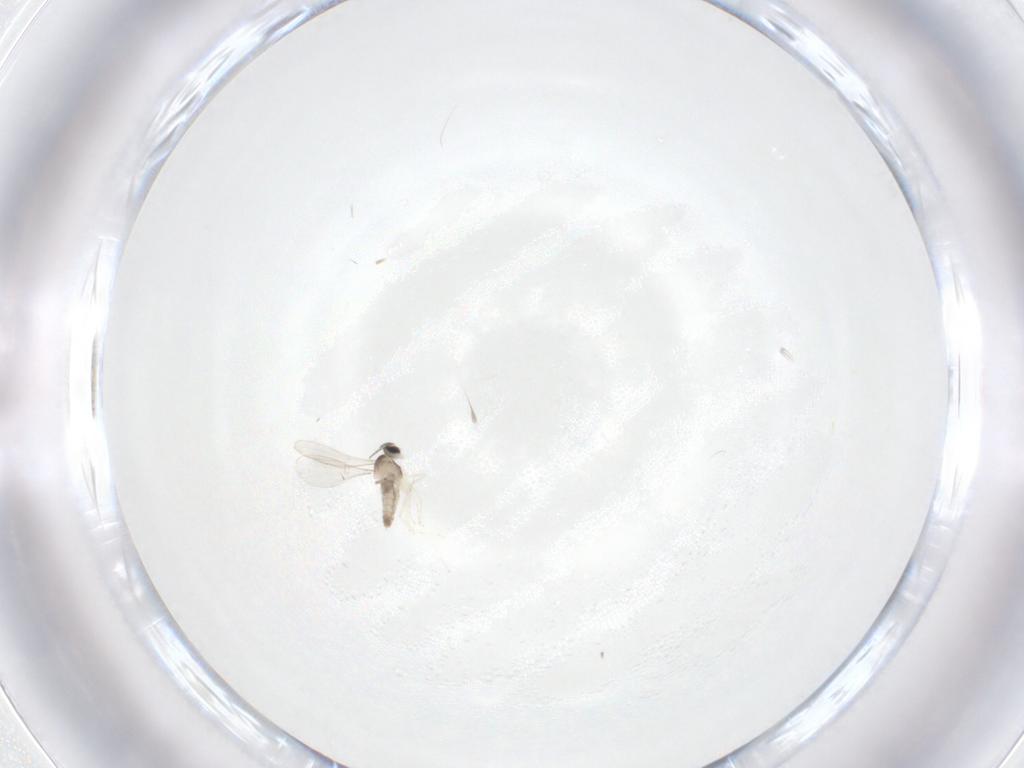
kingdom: Animalia
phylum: Arthropoda
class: Insecta
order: Diptera
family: Cecidomyiidae
